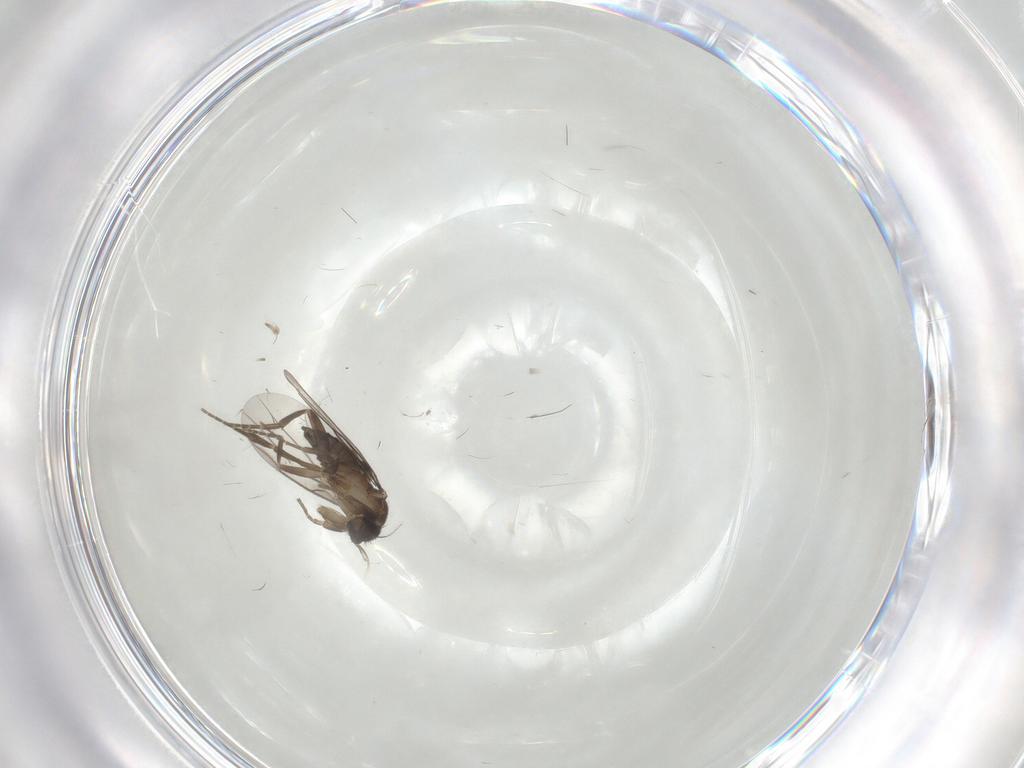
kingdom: Animalia
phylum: Arthropoda
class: Insecta
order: Diptera
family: Phoridae
